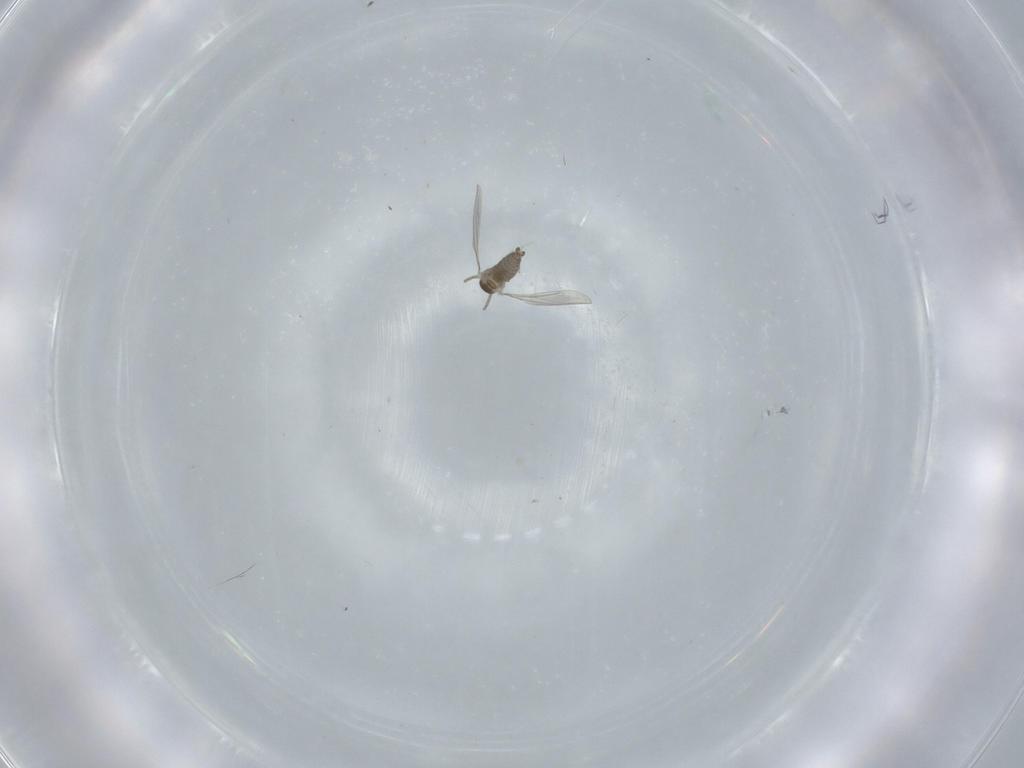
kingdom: Animalia
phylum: Arthropoda
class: Insecta
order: Diptera
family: Cecidomyiidae
